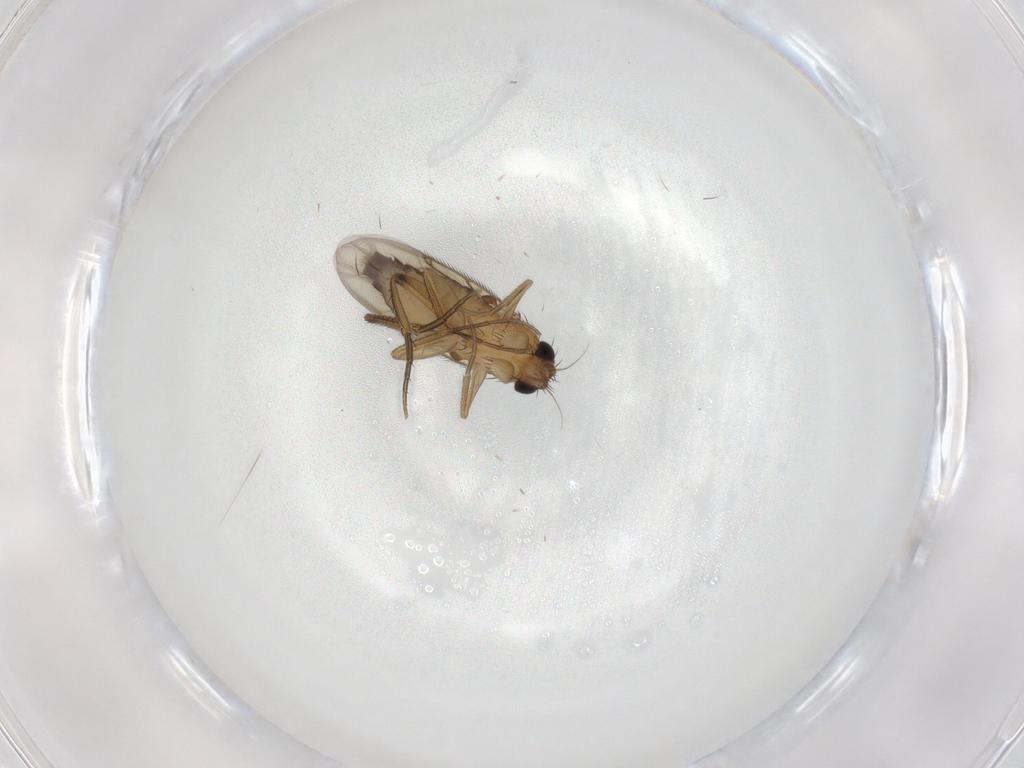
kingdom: Animalia
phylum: Arthropoda
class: Insecta
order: Diptera
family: Phoridae
